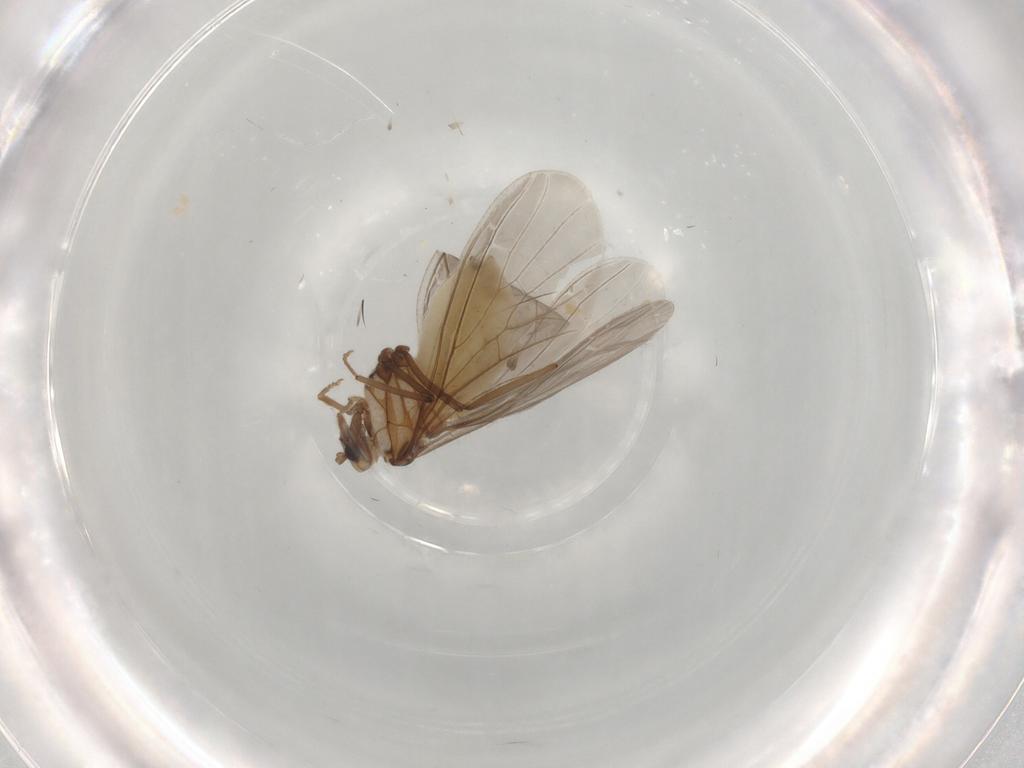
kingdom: Animalia
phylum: Arthropoda
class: Insecta
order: Neuroptera
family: Coniopterygidae
